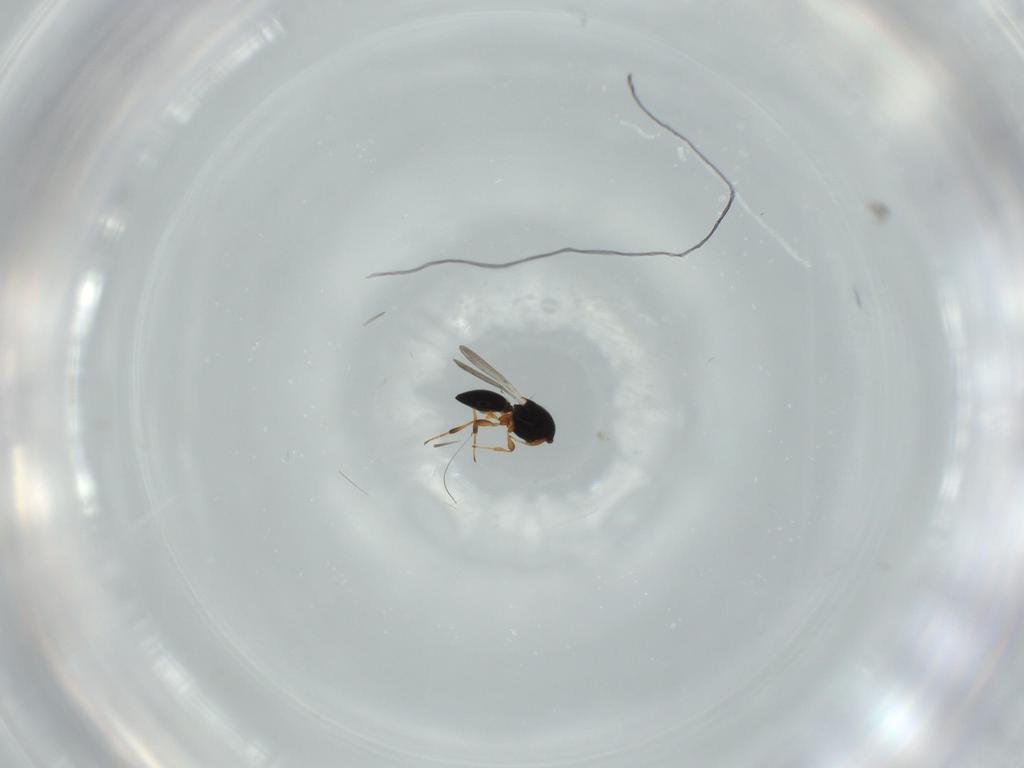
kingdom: Animalia
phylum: Arthropoda
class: Insecta
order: Hymenoptera
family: Platygastridae
